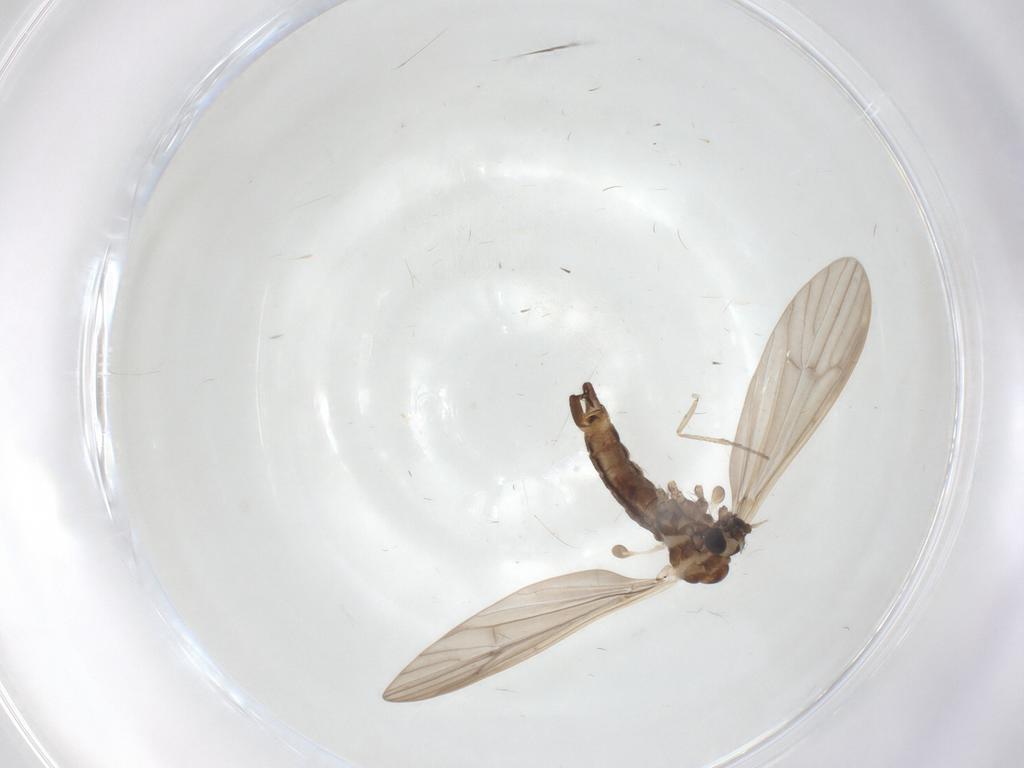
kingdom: Animalia
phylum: Arthropoda
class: Insecta
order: Diptera
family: Limoniidae
